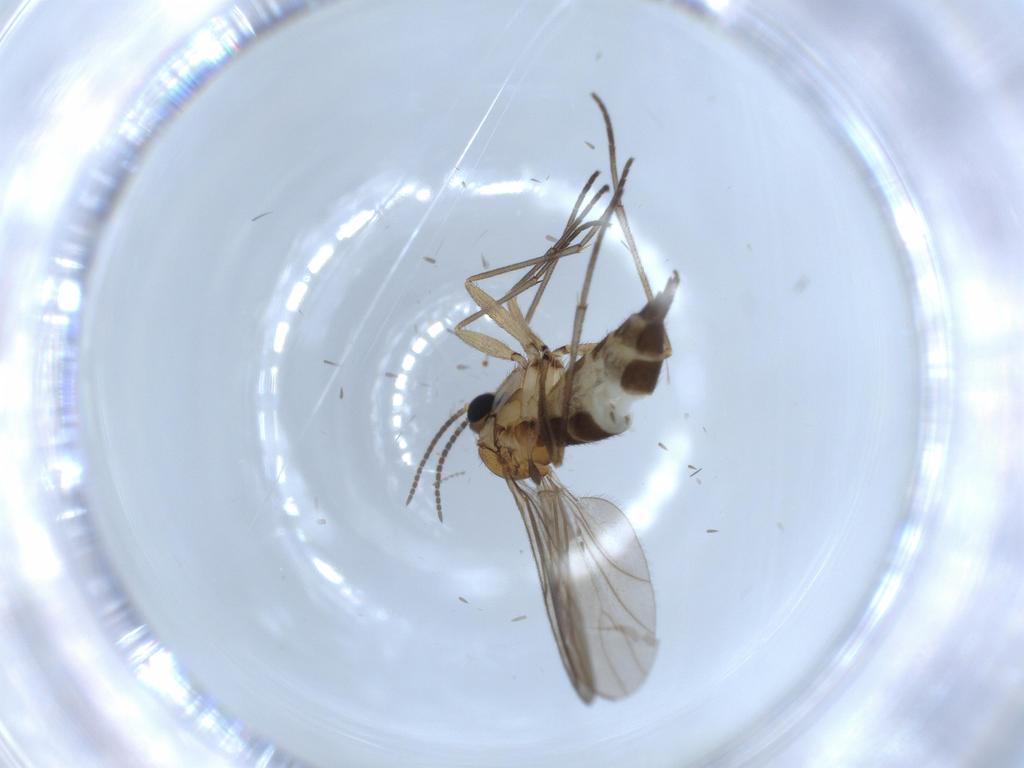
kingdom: Animalia
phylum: Arthropoda
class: Insecta
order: Diptera
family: Sciaridae
